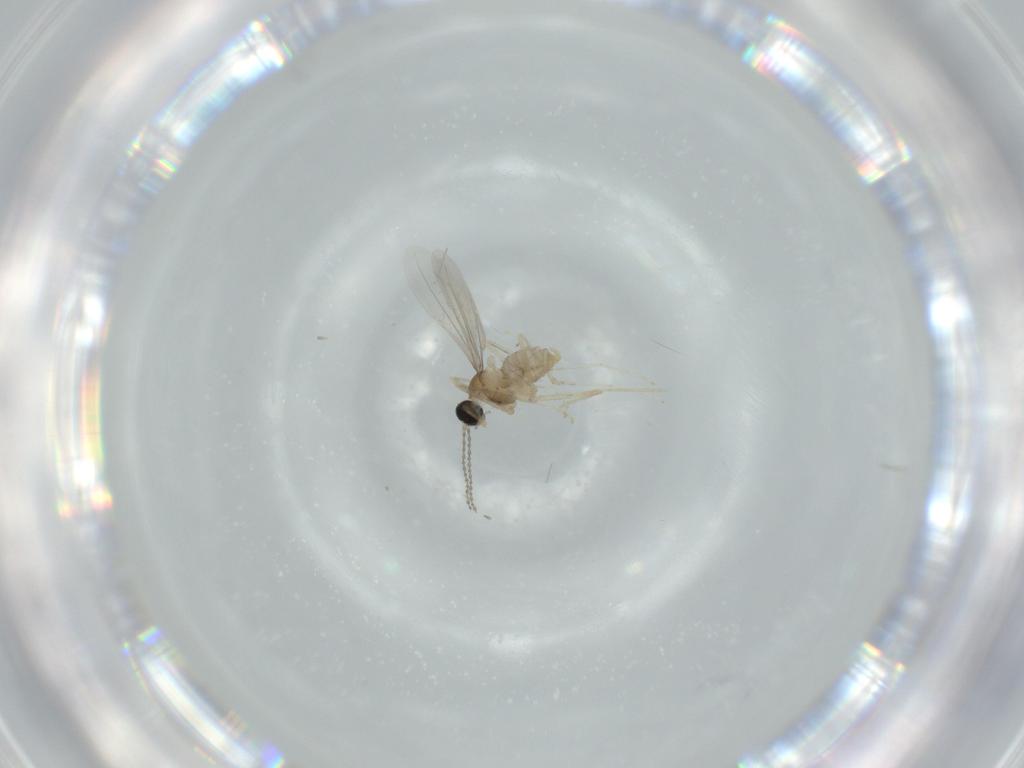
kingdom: Animalia
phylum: Arthropoda
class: Insecta
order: Diptera
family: Cecidomyiidae
